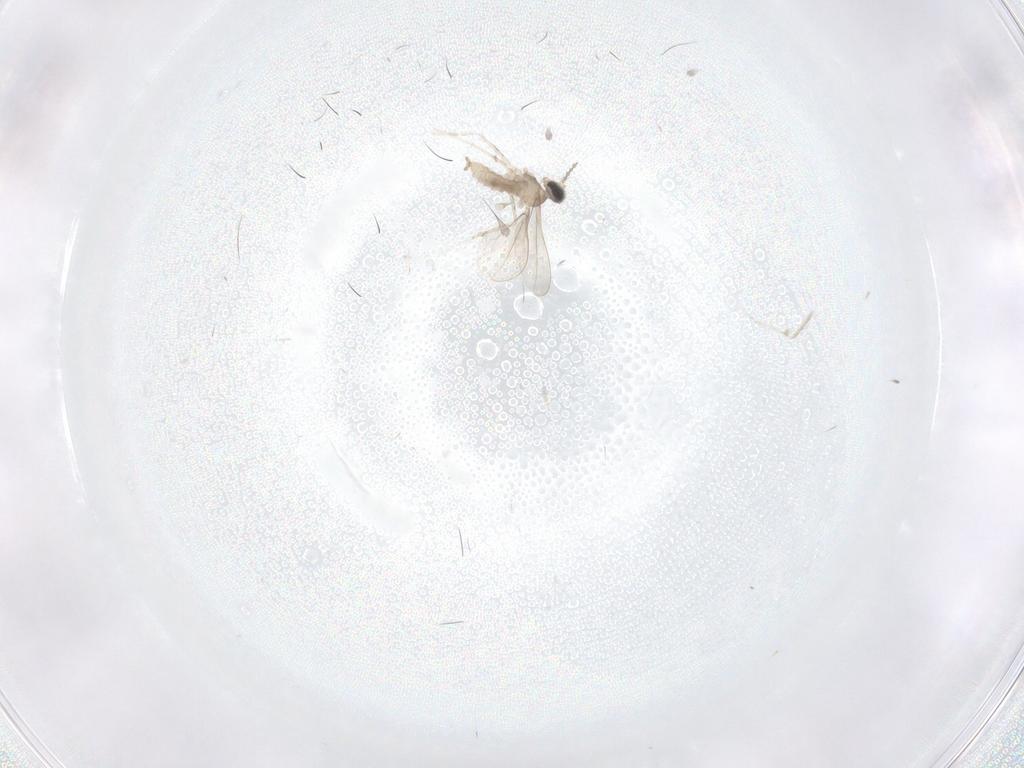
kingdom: Animalia
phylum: Arthropoda
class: Insecta
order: Diptera
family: Cecidomyiidae
